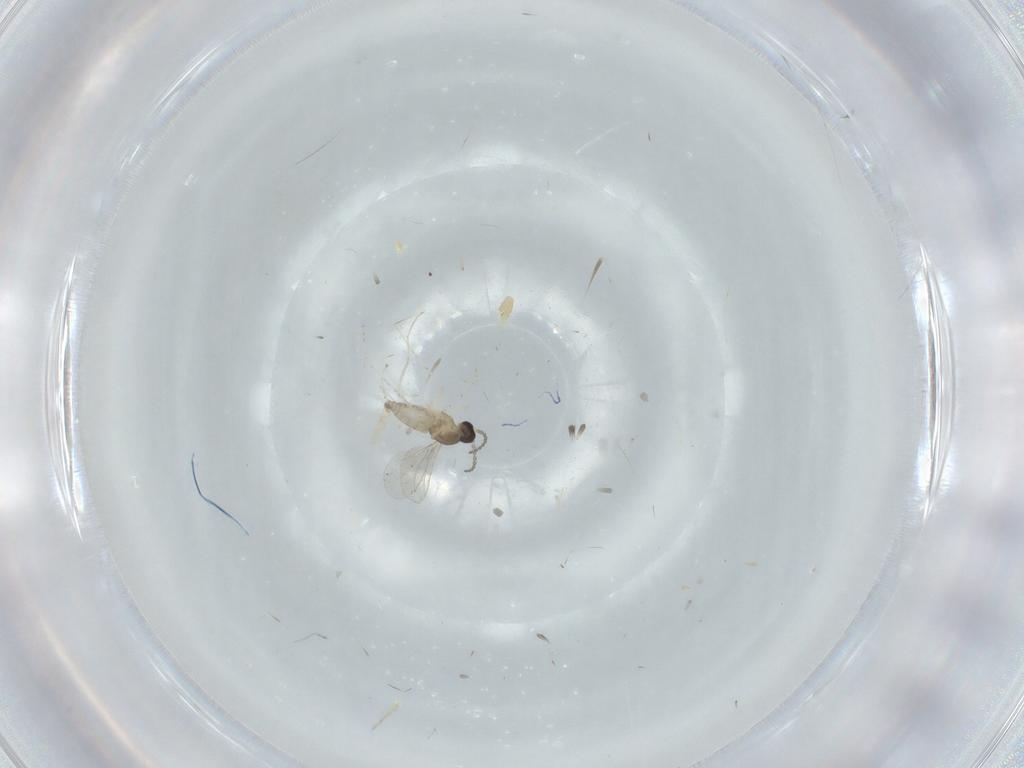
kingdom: Animalia
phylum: Arthropoda
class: Insecta
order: Diptera
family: Cecidomyiidae
